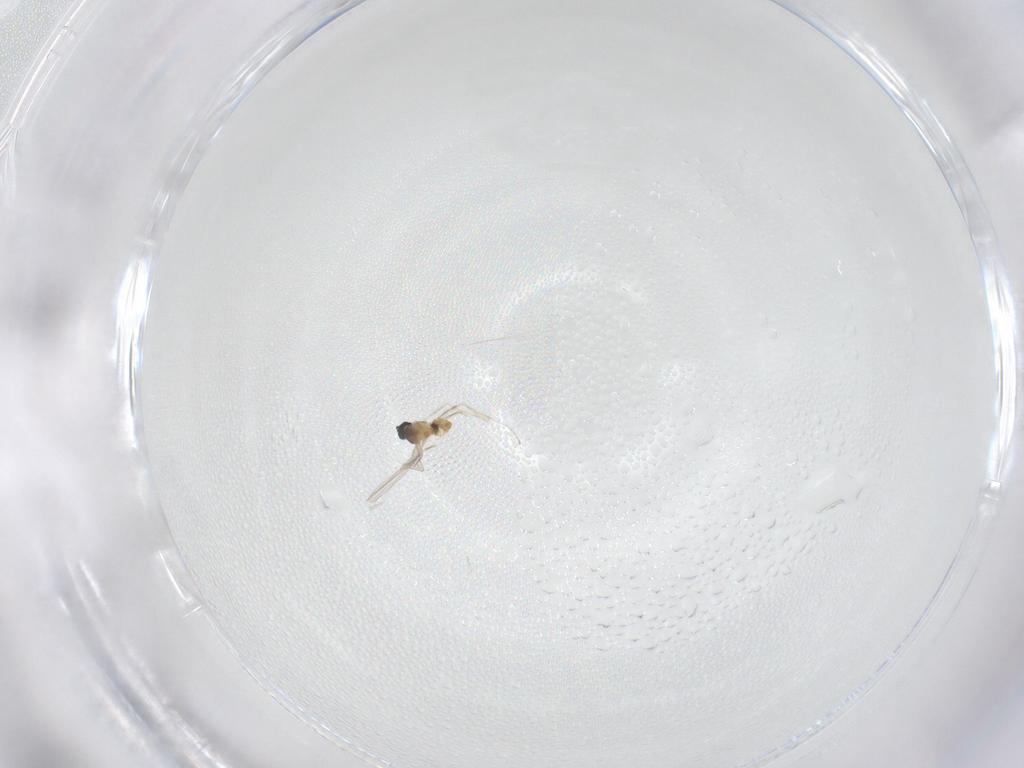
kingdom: Animalia
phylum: Arthropoda
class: Insecta
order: Diptera
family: Cecidomyiidae
